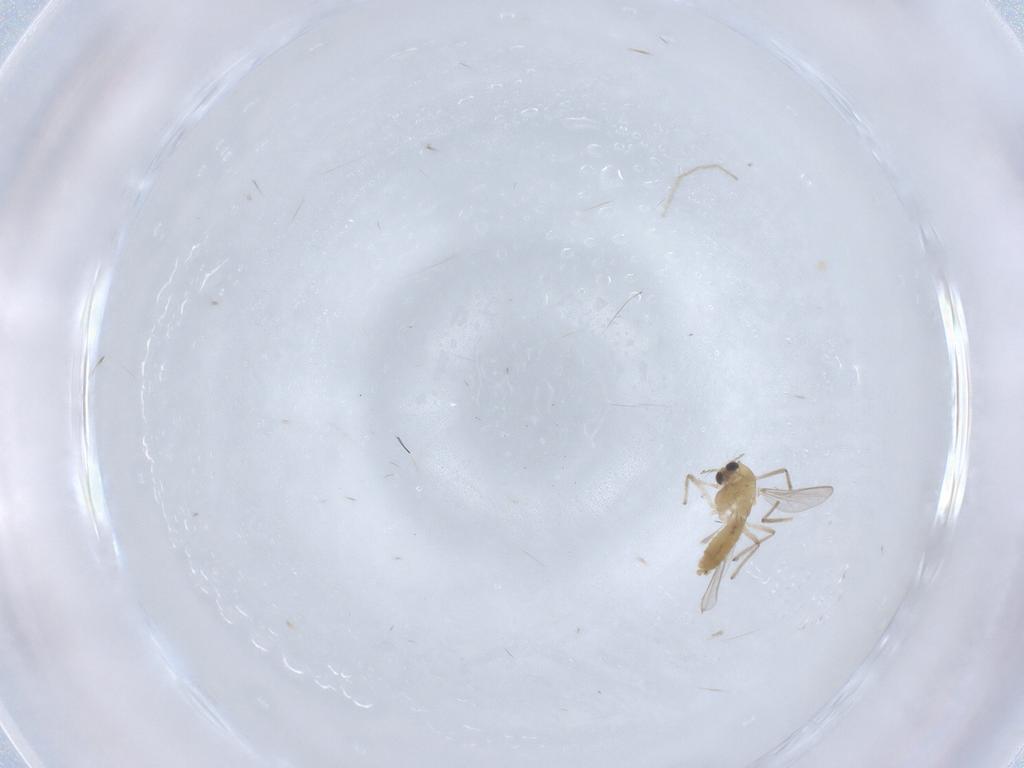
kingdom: Animalia
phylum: Arthropoda
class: Insecta
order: Diptera
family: Chironomidae
